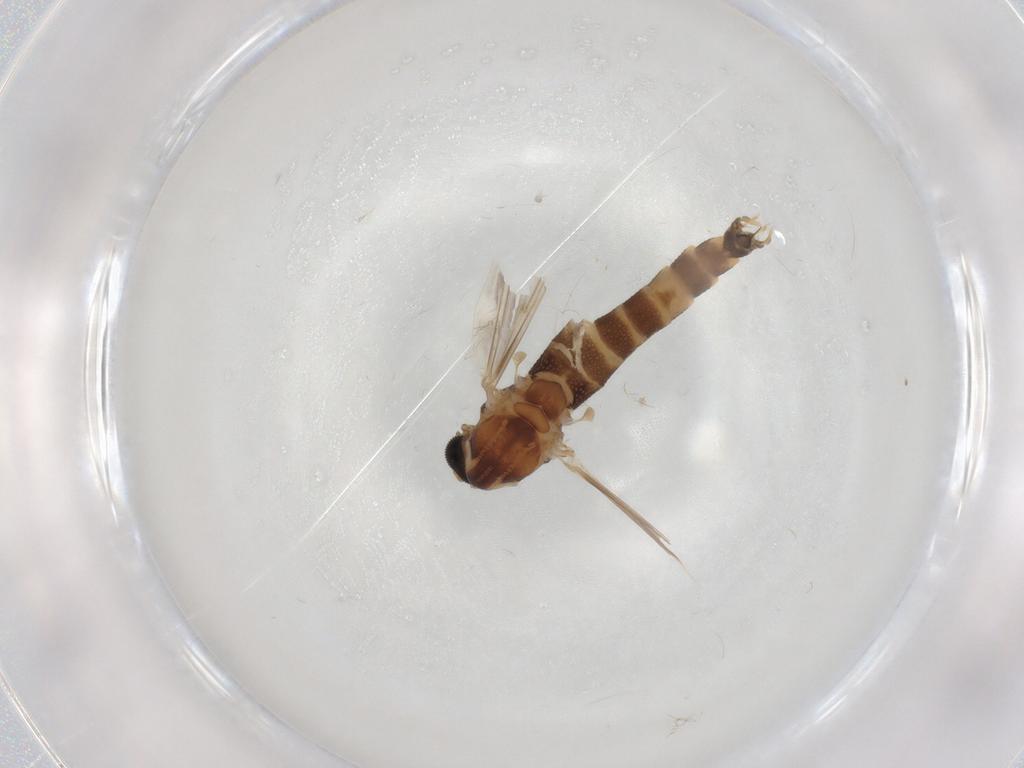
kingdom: Animalia
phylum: Arthropoda
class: Insecta
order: Diptera
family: Chironomidae
